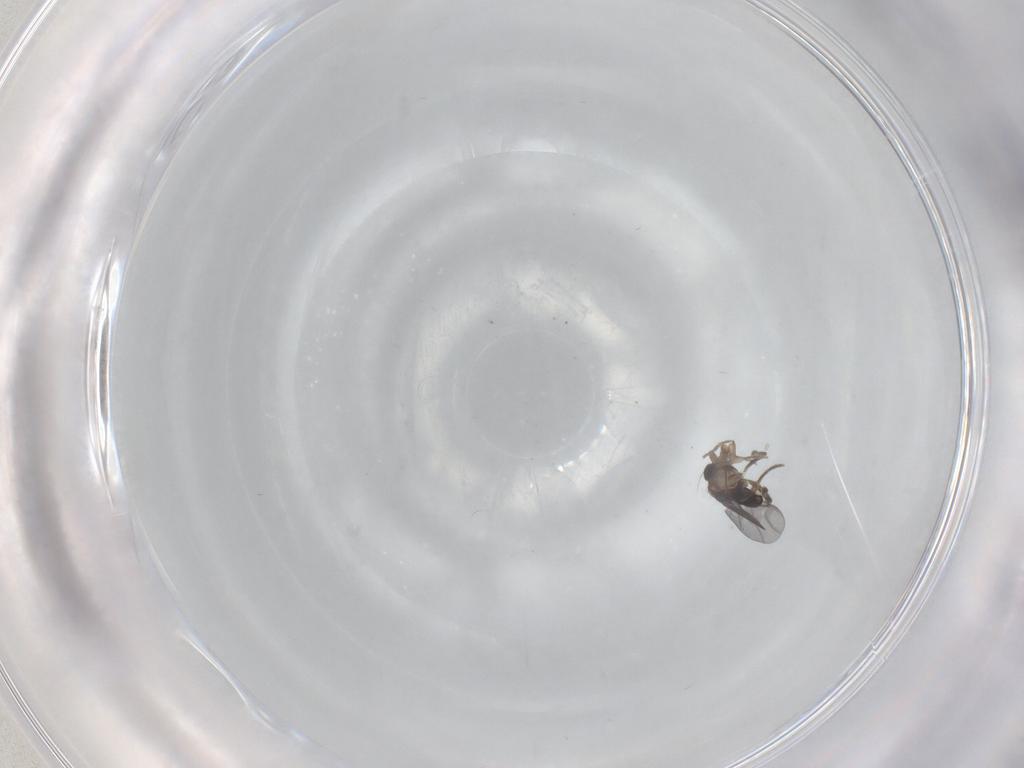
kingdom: Animalia
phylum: Arthropoda
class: Insecta
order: Diptera
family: Dolichopodidae
